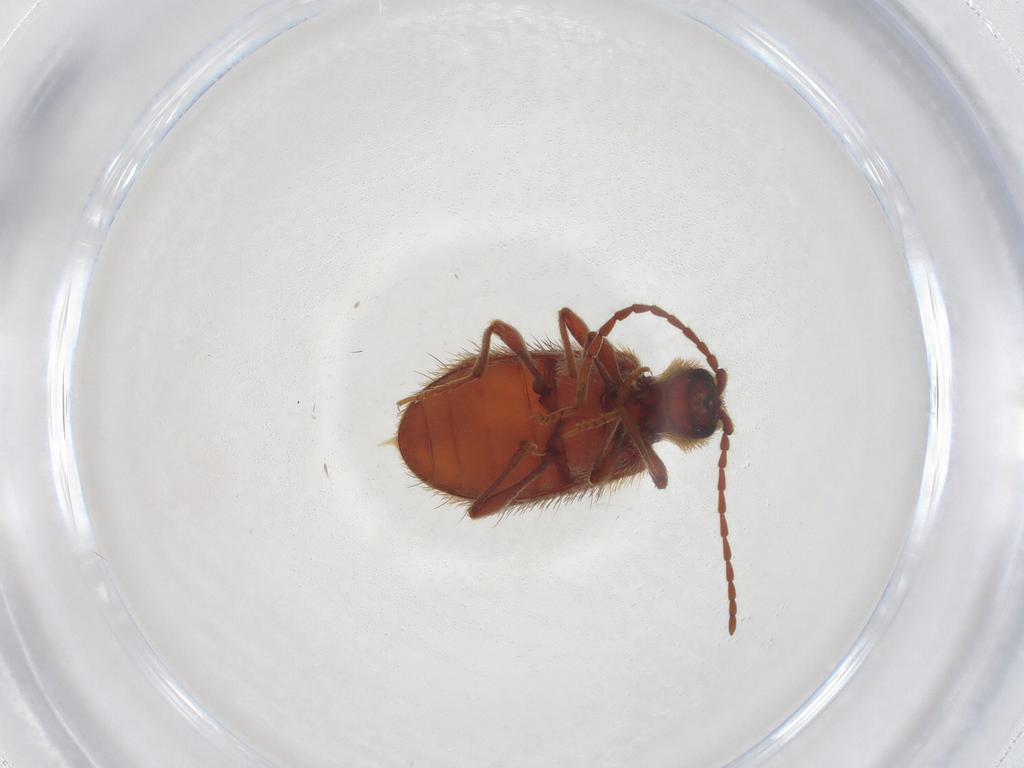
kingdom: Animalia
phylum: Arthropoda
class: Insecta
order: Coleoptera
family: Ptinidae
